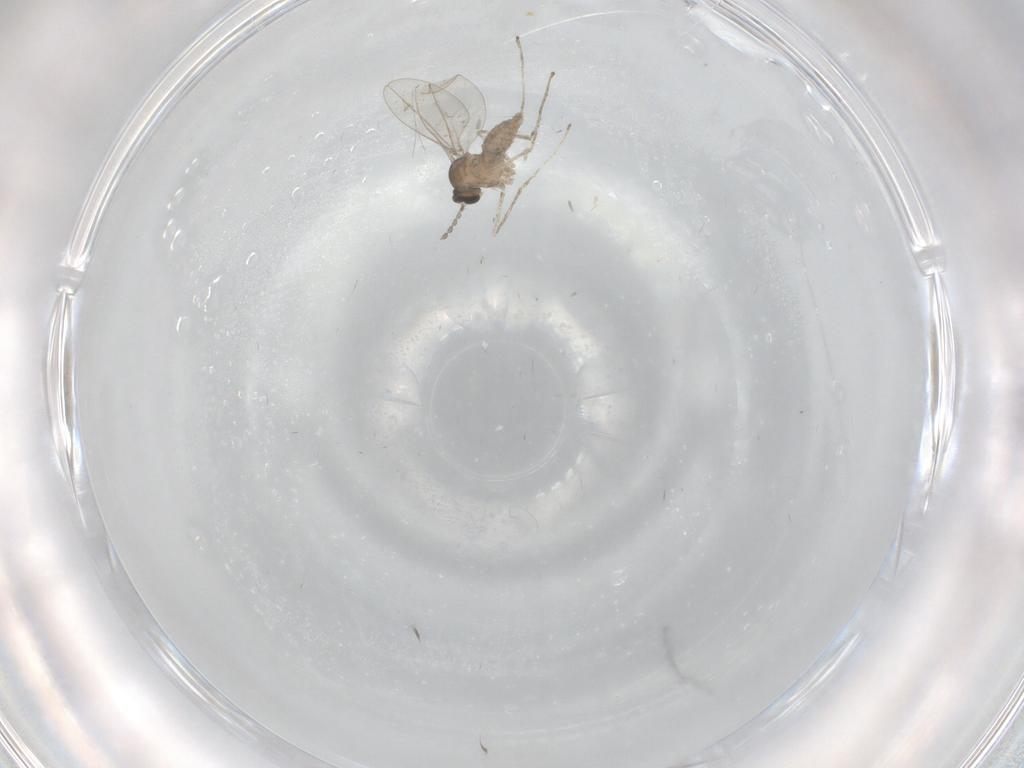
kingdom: Animalia
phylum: Arthropoda
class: Insecta
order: Diptera
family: Cecidomyiidae
